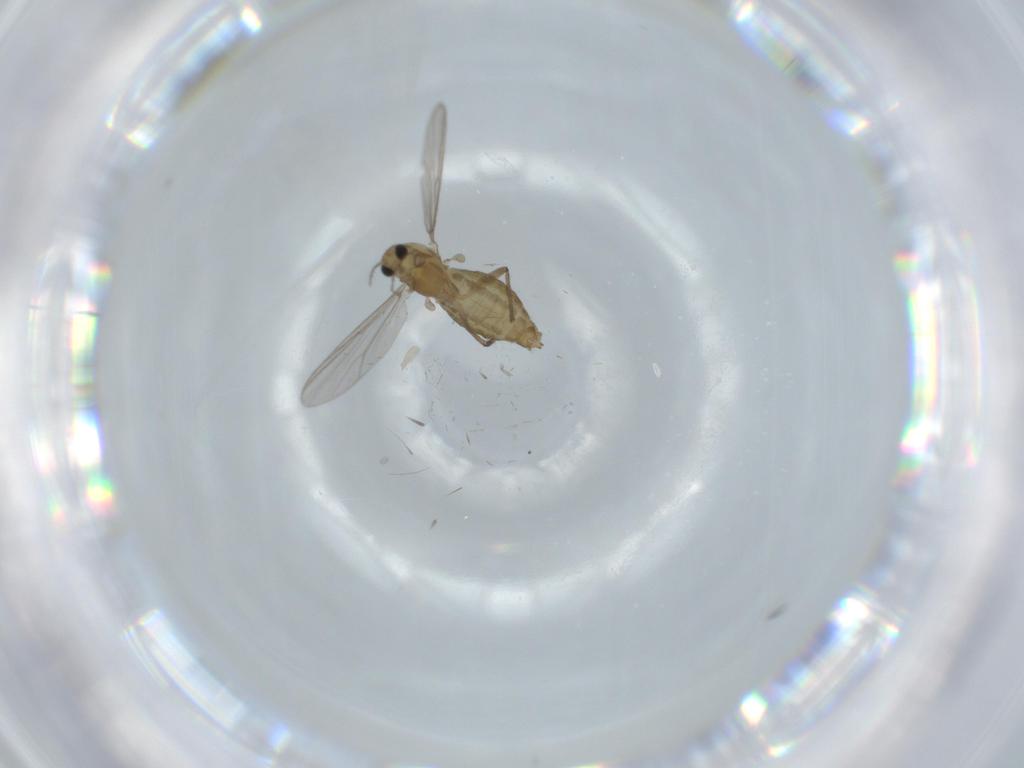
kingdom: Animalia
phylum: Arthropoda
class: Insecta
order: Diptera
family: Chironomidae
